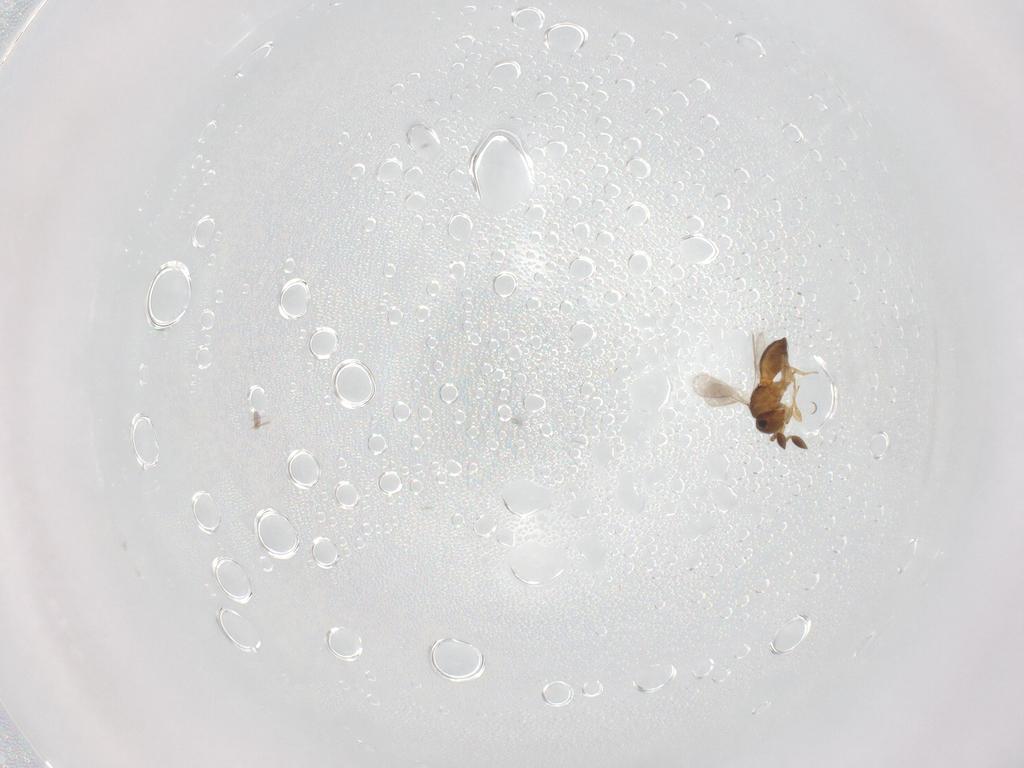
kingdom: Animalia
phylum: Arthropoda
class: Insecta
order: Hymenoptera
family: Scelionidae
